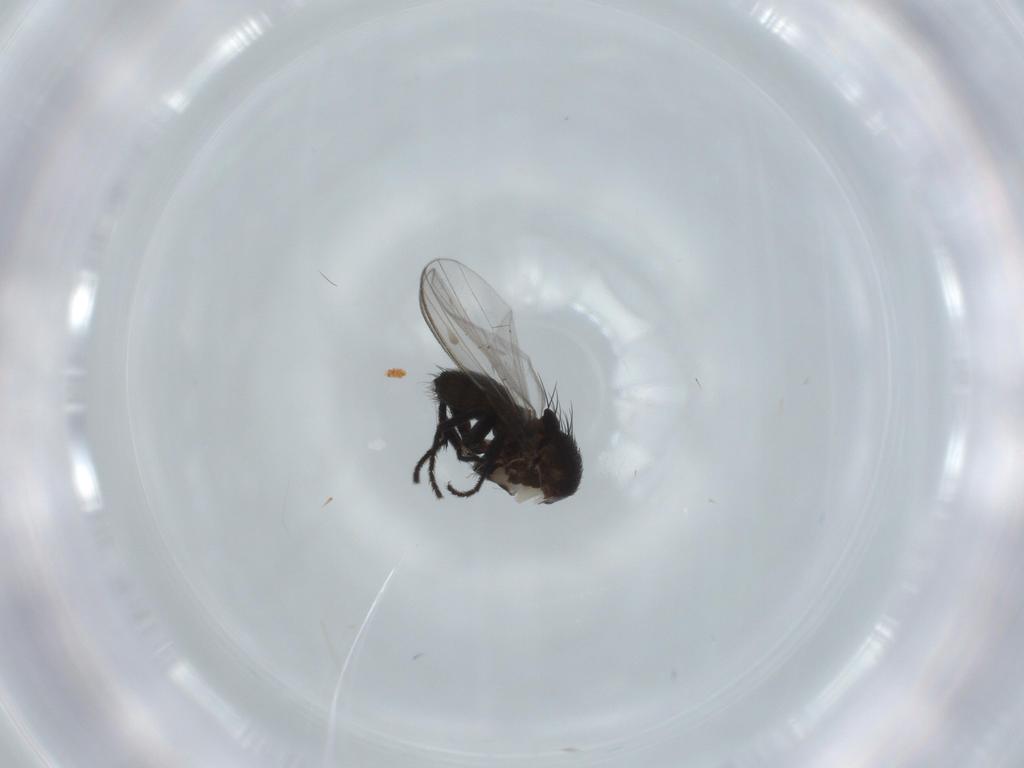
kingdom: Animalia
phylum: Arthropoda
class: Insecta
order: Diptera
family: Milichiidae
